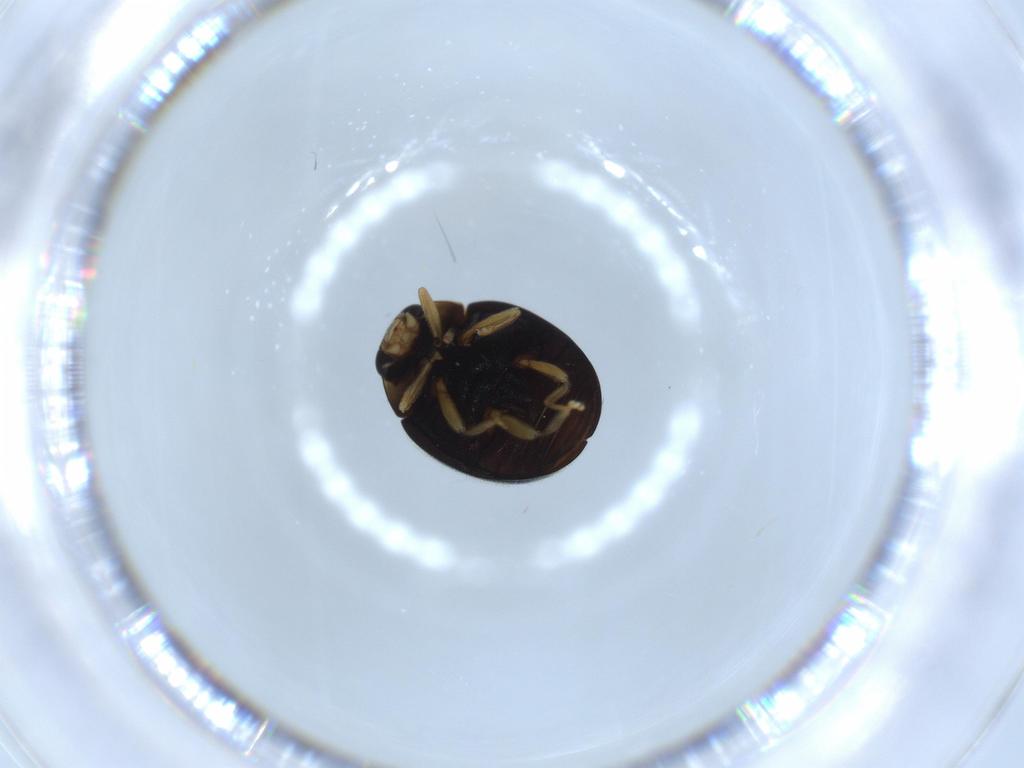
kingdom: Animalia
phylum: Arthropoda
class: Insecta
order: Coleoptera
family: Coccinellidae
